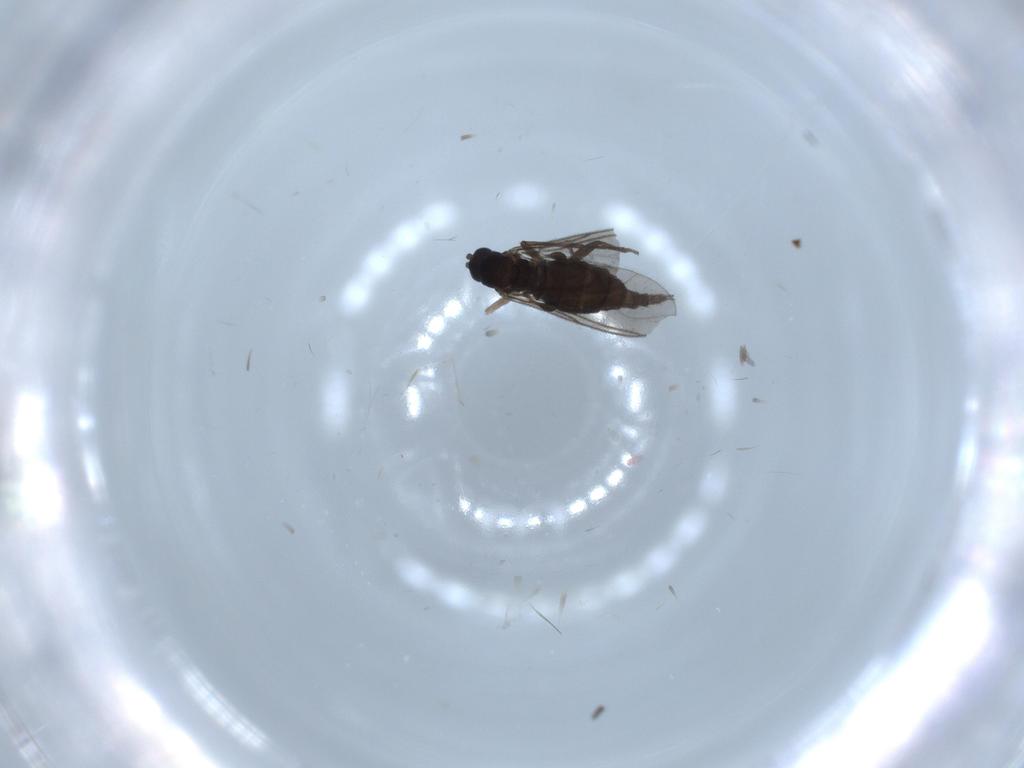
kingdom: Animalia
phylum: Arthropoda
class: Insecta
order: Diptera
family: Sciaridae
